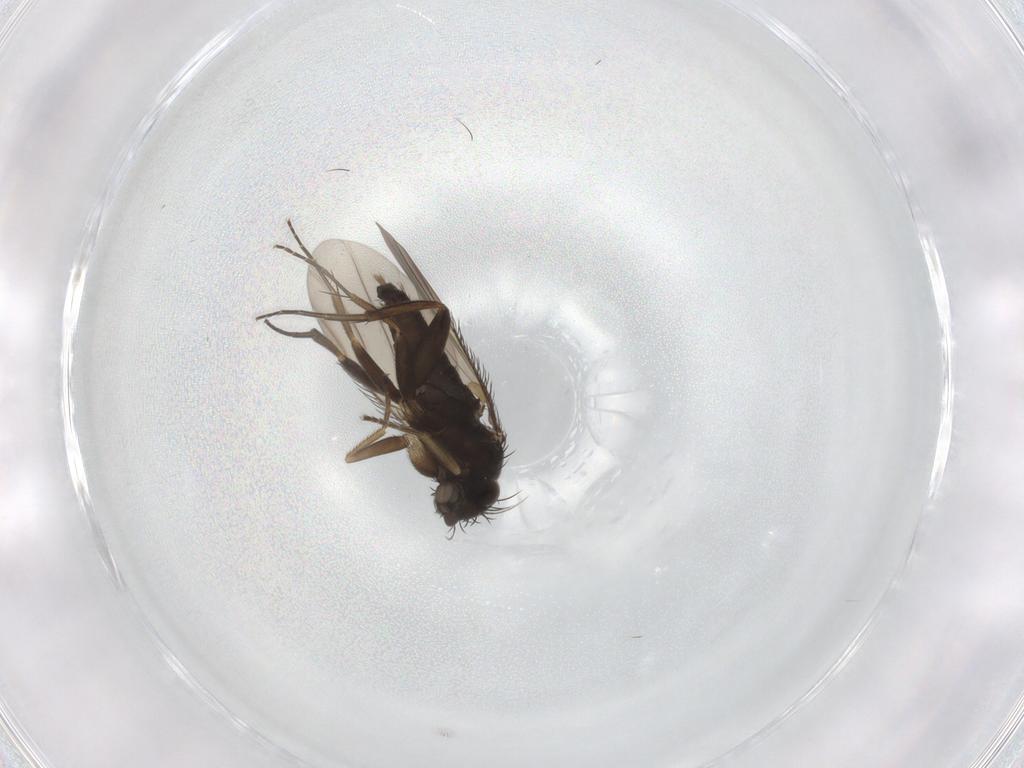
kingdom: Animalia
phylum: Arthropoda
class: Insecta
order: Diptera
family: Phoridae
